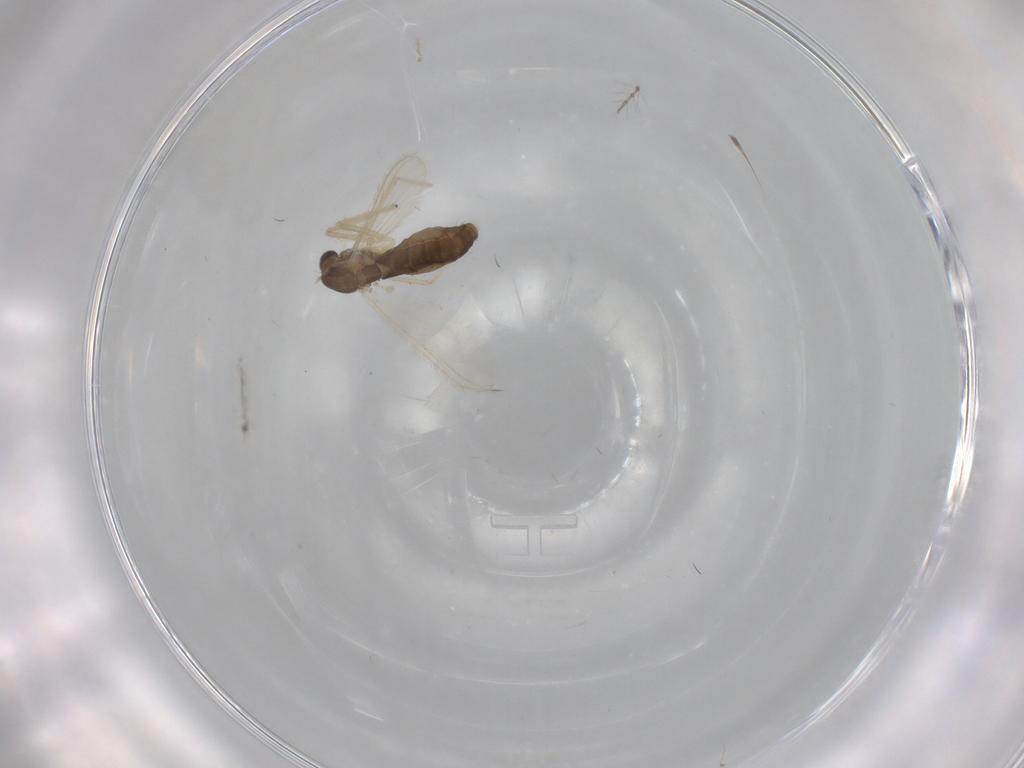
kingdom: Animalia
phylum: Arthropoda
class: Insecta
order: Diptera
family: Chironomidae
